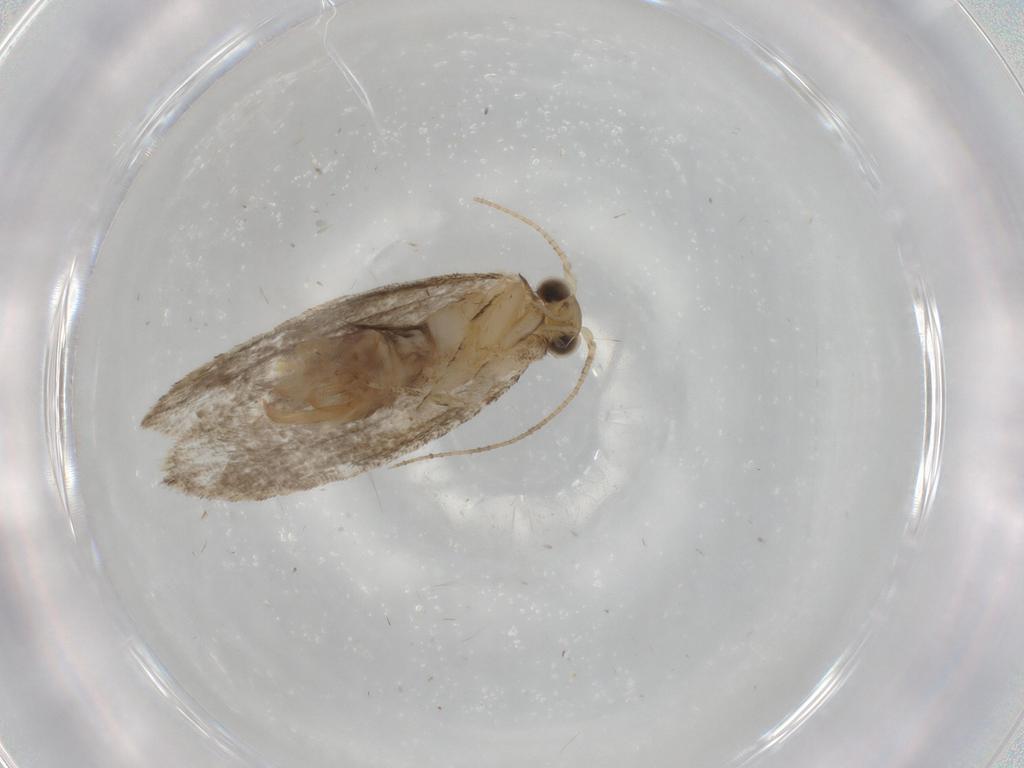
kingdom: Animalia
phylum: Arthropoda
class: Insecta
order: Lepidoptera
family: Tineidae
